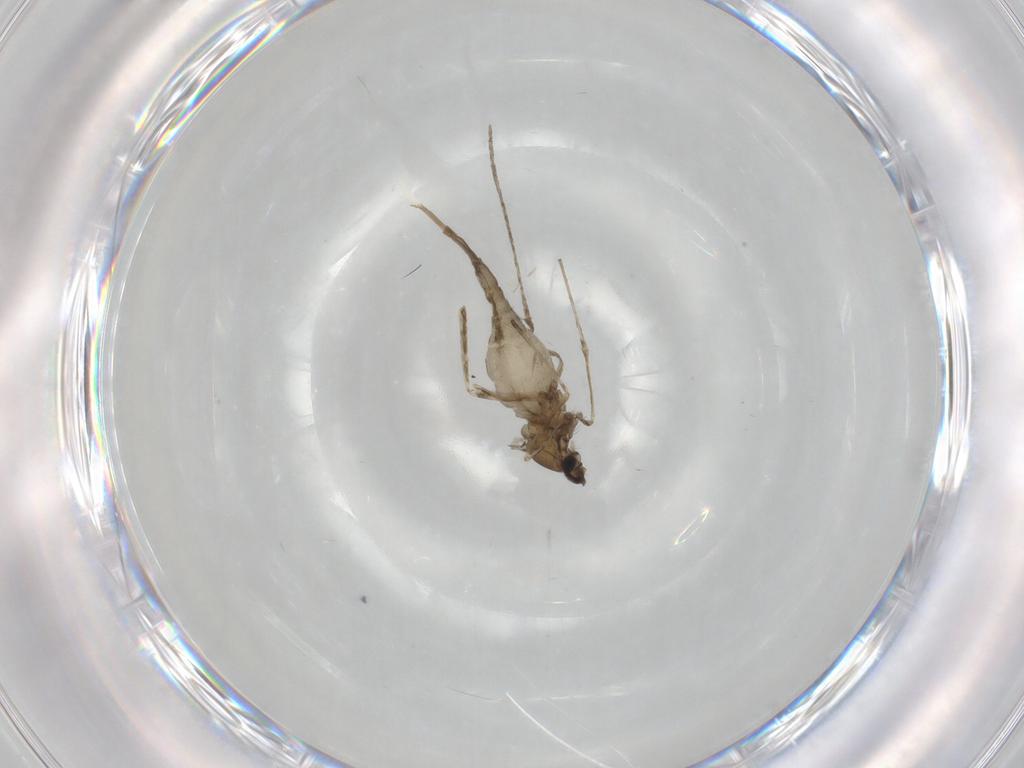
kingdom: Animalia
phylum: Arthropoda
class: Insecta
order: Diptera
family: Cecidomyiidae
